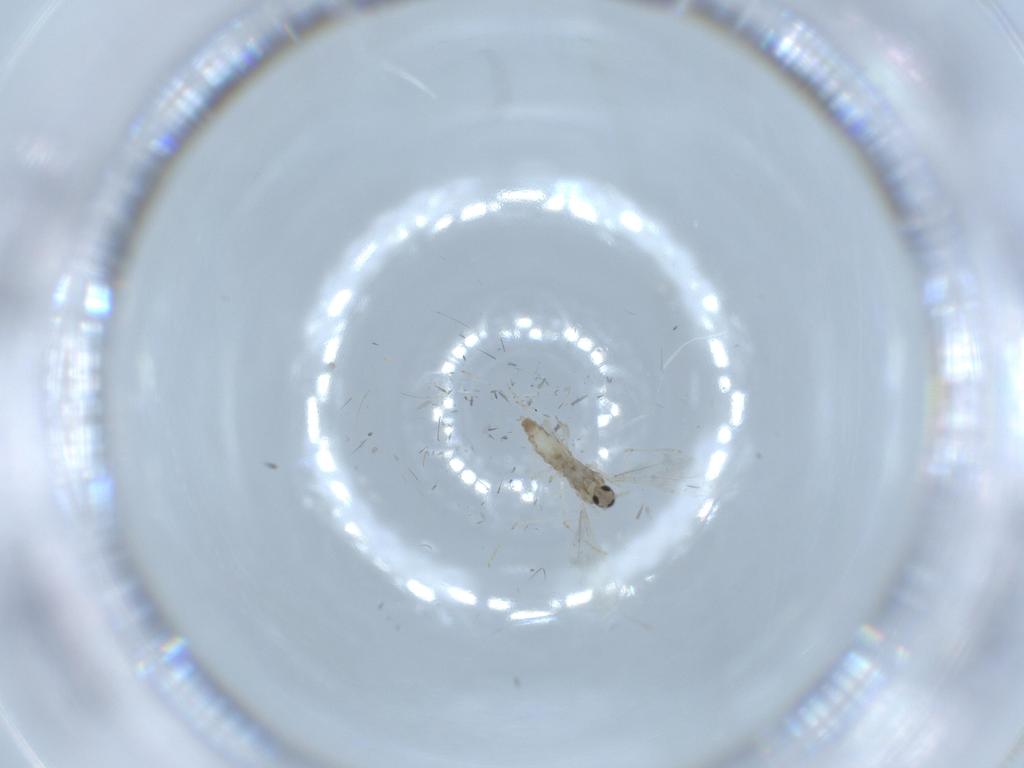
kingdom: Animalia
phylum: Arthropoda
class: Insecta
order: Diptera
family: Cecidomyiidae
